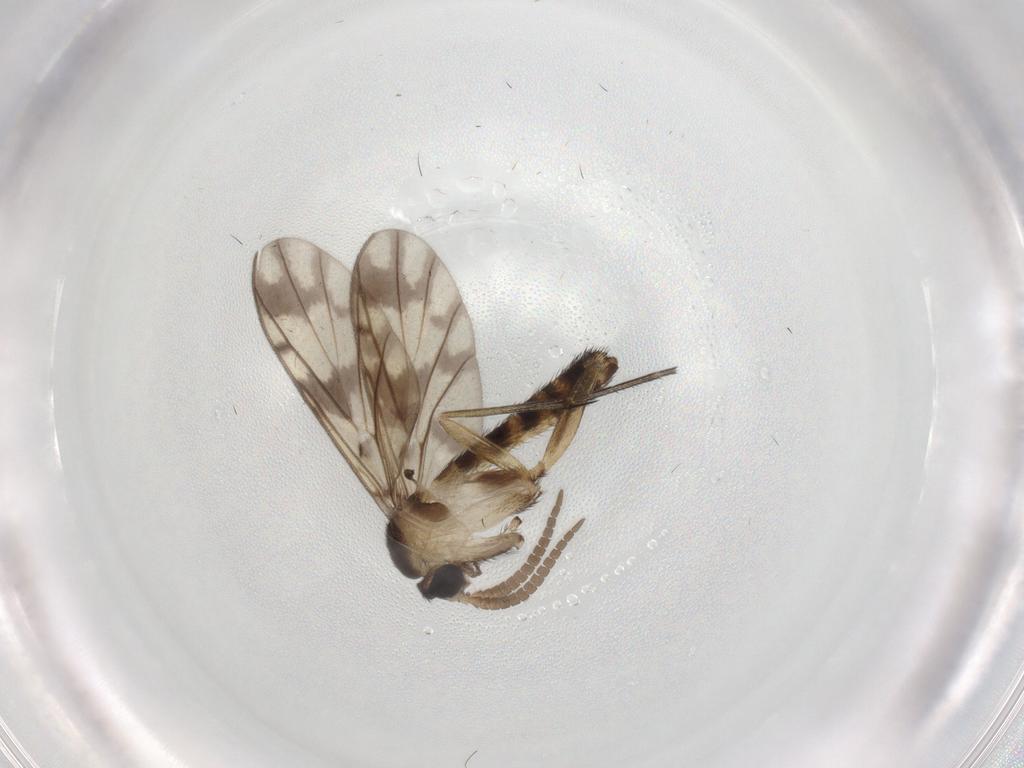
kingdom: Animalia
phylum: Arthropoda
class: Insecta
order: Diptera
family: Keroplatidae
